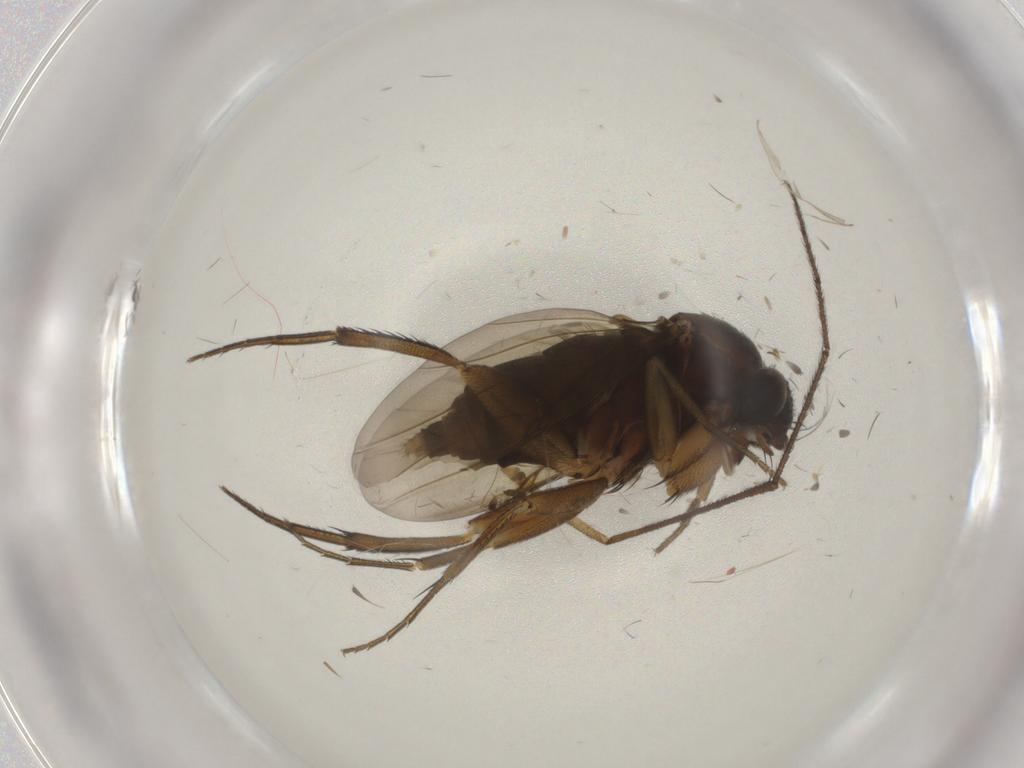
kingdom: Animalia
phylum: Arthropoda
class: Insecta
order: Diptera
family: Phoridae
